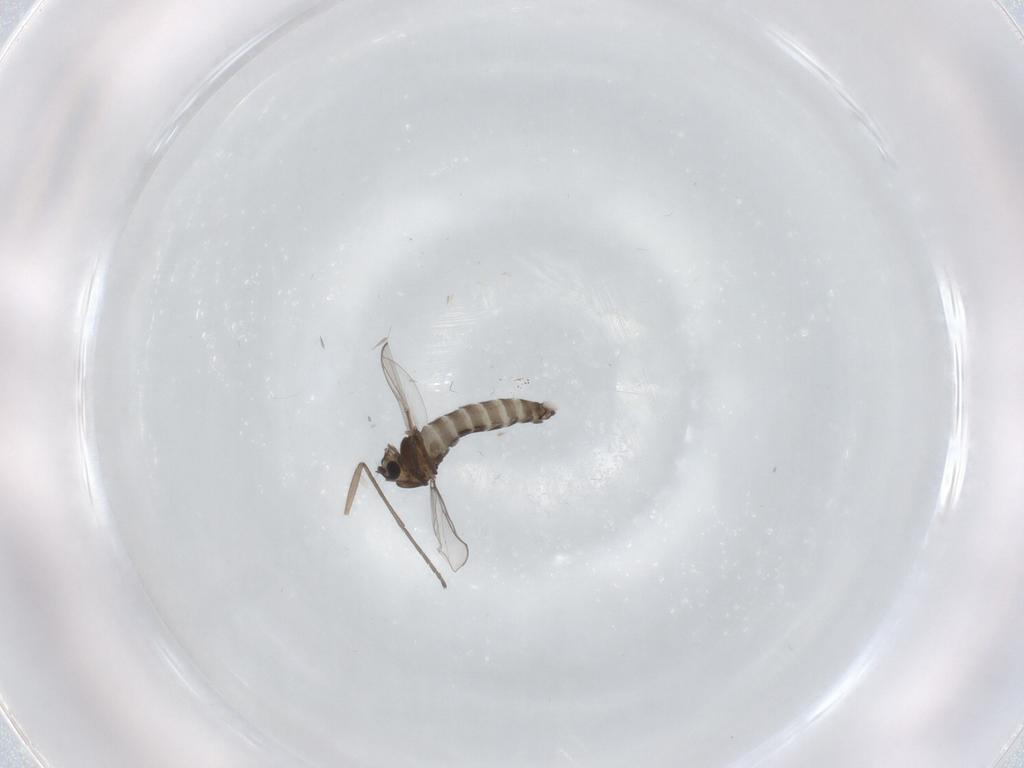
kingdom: Animalia
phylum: Arthropoda
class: Insecta
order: Diptera
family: Sciaridae
